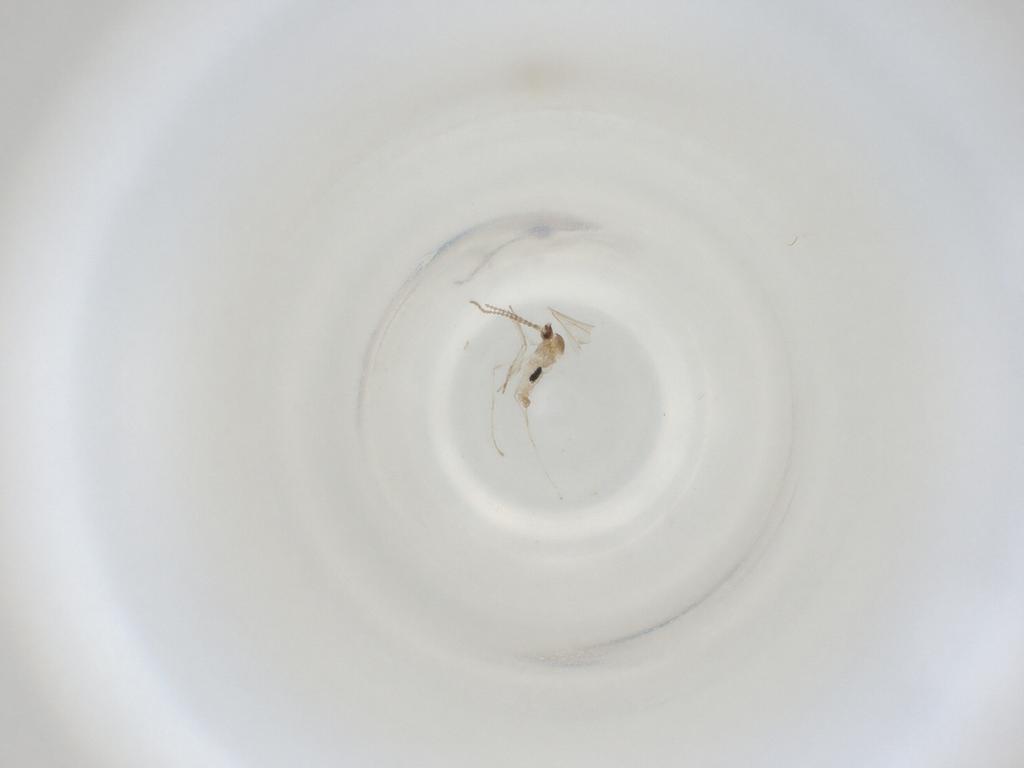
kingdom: Animalia
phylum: Arthropoda
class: Insecta
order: Diptera
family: Cecidomyiidae
